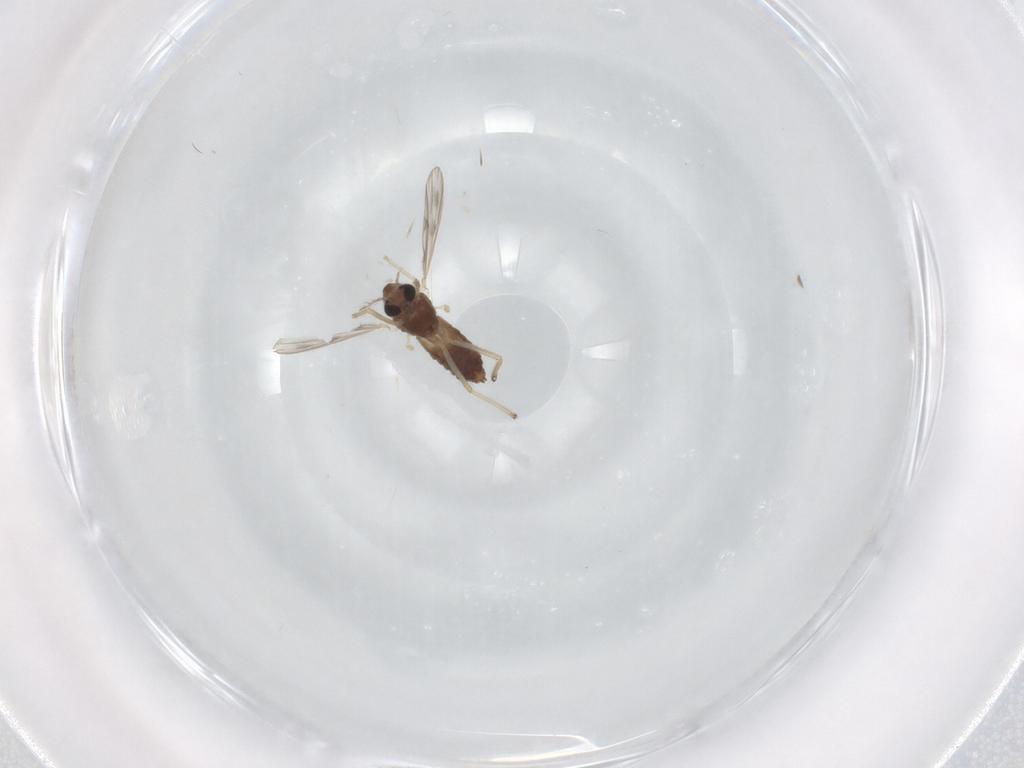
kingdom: Animalia
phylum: Arthropoda
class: Insecta
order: Diptera
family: Chironomidae
